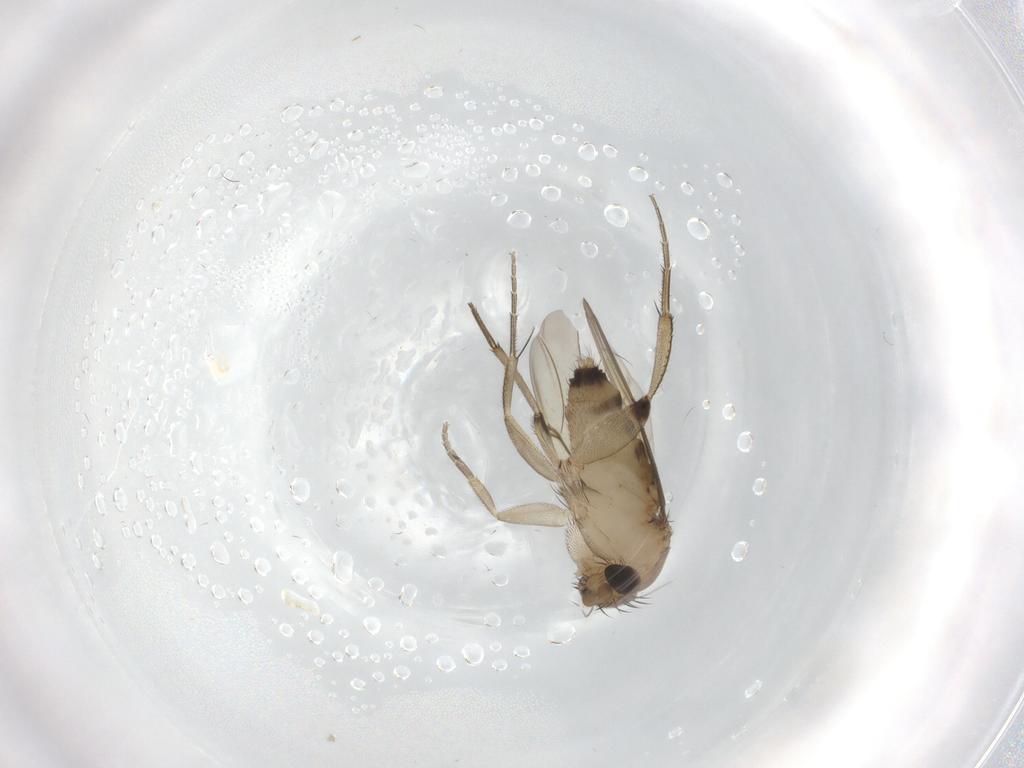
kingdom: Animalia
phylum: Arthropoda
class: Insecta
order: Diptera
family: Phoridae
